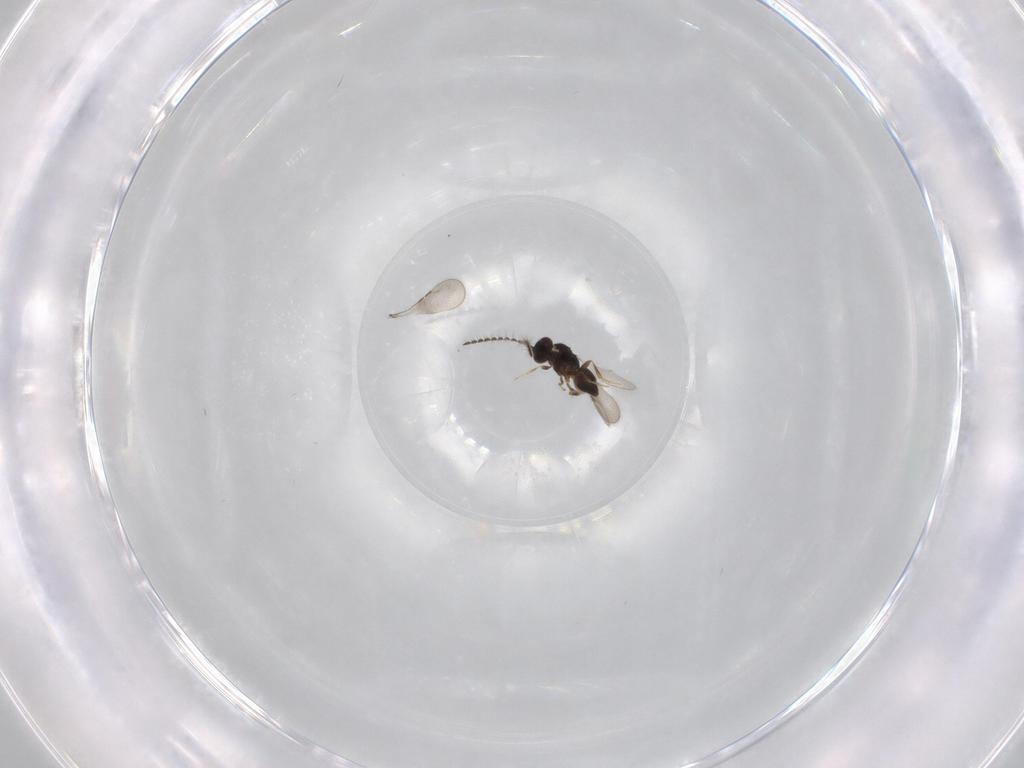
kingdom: Animalia
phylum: Arthropoda
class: Insecta
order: Hymenoptera
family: Ceraphronidae
